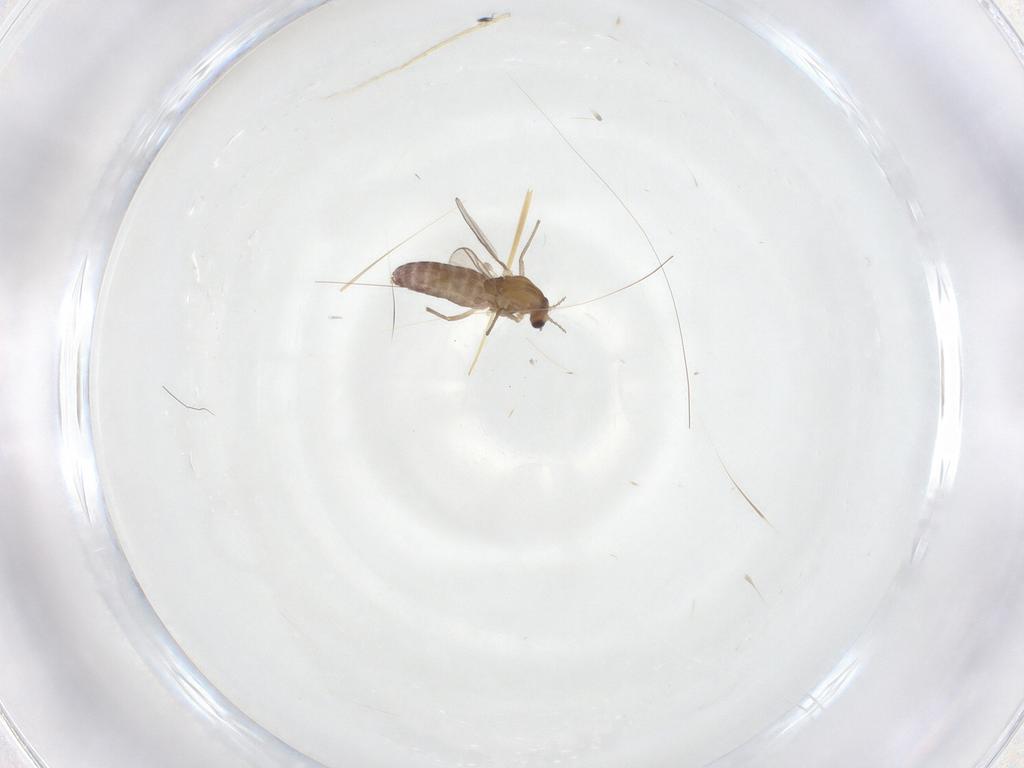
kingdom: Animalia
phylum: Arthropoda
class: Insecta
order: Diptera
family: Chironomidae
